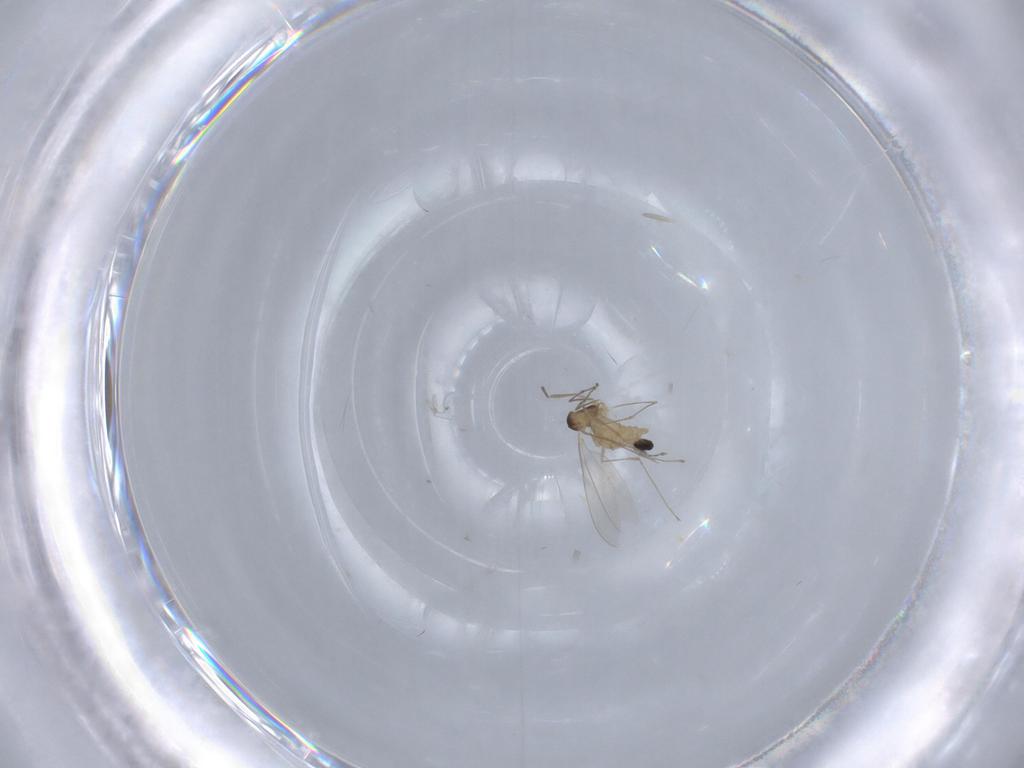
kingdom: Animalia
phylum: Arthropoda
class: Insecta
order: Diptera
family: Cecidomyiidae
